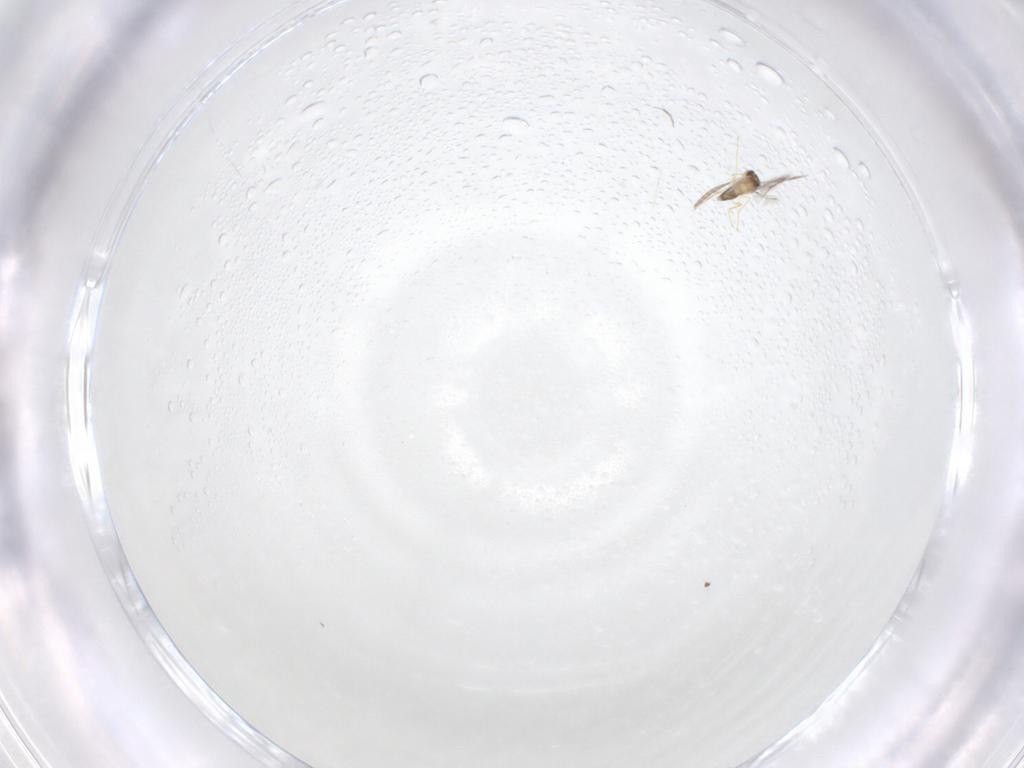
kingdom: Animalia
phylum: Arthropoda
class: Insecta
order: Hymenoptera
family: Mymaridae
